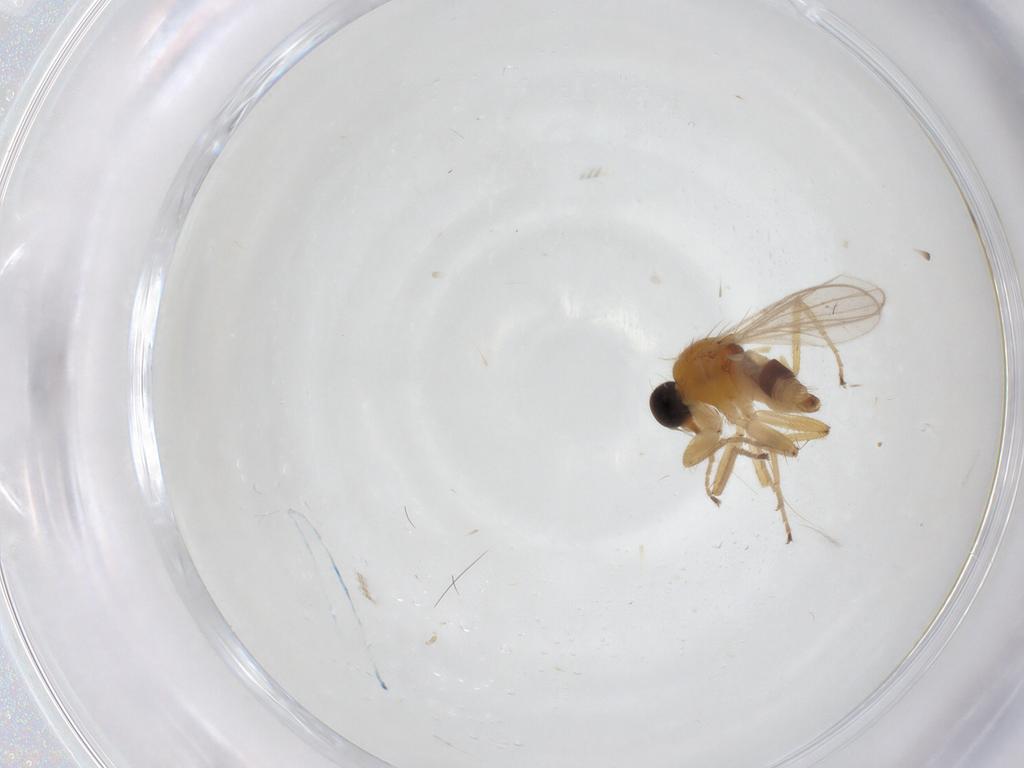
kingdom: Animalia
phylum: Arthropoda
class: Insecta
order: Diptera
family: Hybotidae
